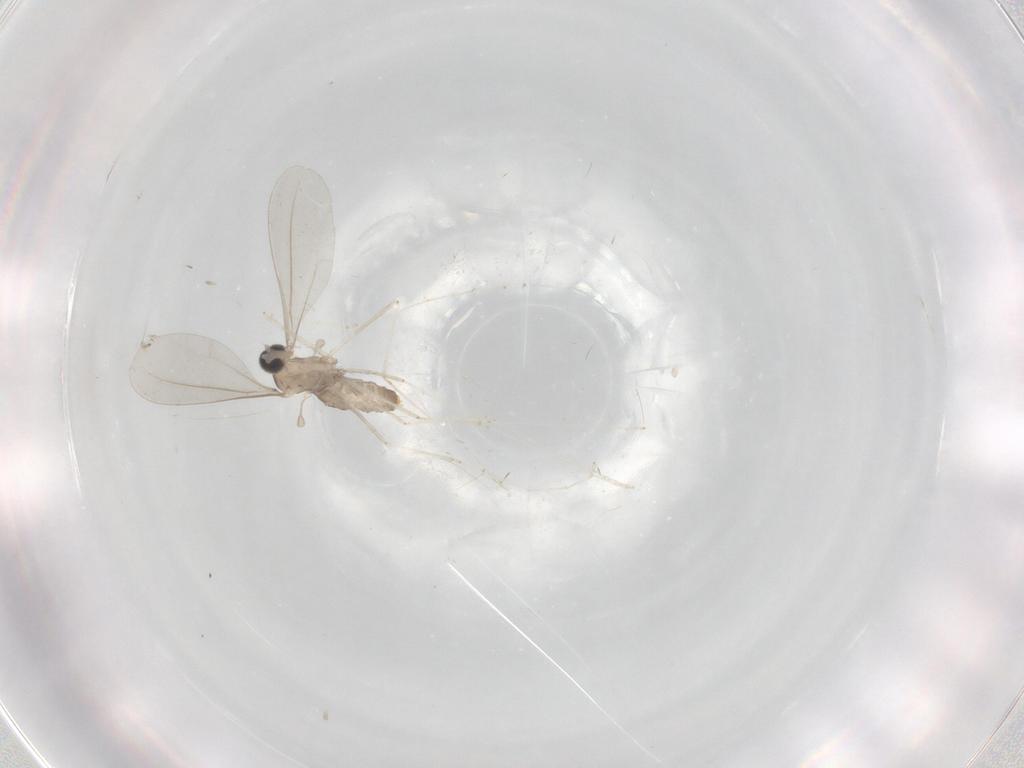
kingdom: Animalia
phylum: Arthropoda
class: Insecta
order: Diptera
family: Cecidomyiidae
